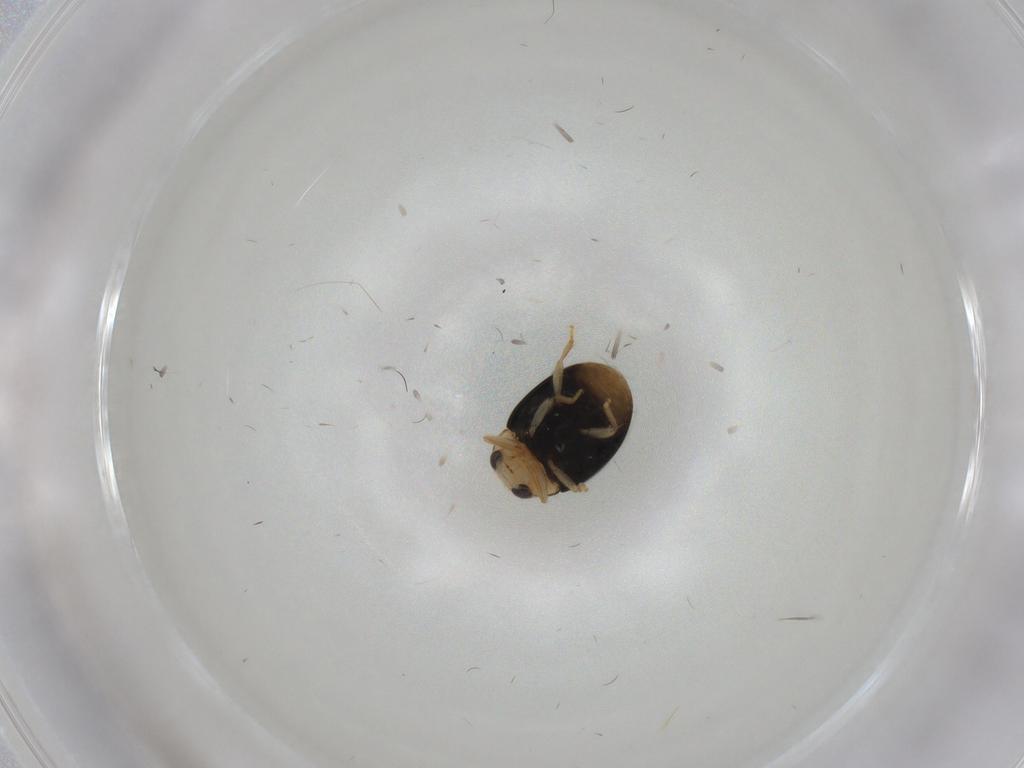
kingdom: Animalia
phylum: Arthropoda
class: Insecta
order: Coleoptera
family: Coccinellidae
